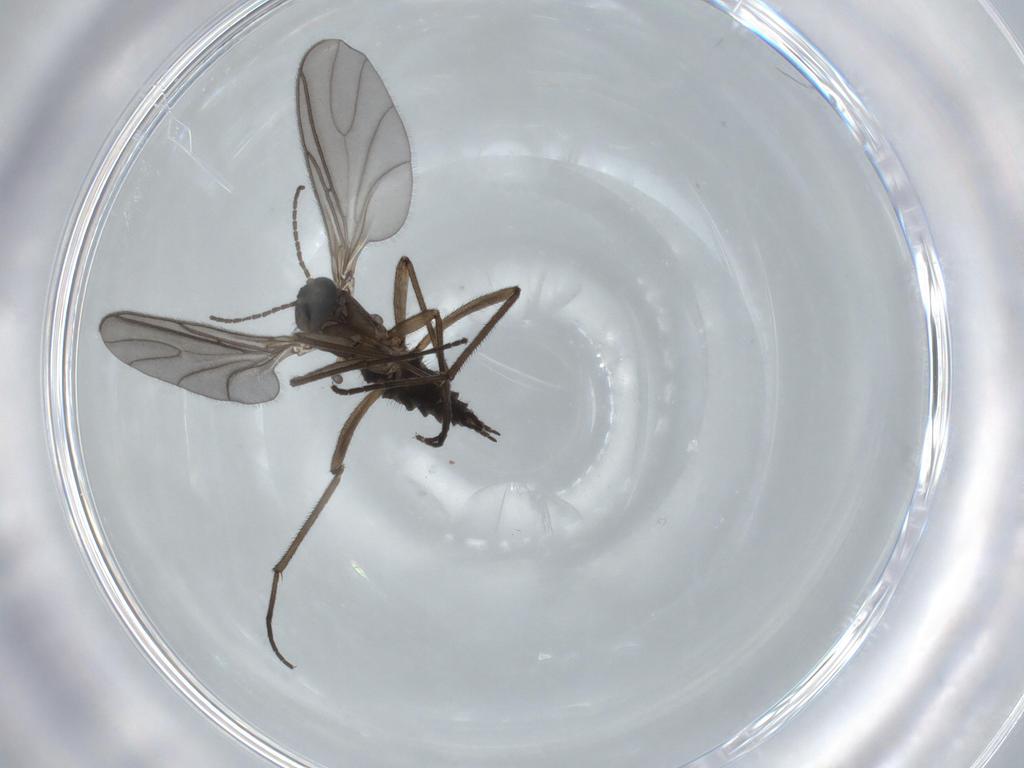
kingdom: Animalia
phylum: Arthropoda
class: Insecta
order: Diptera
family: Sciaridae
